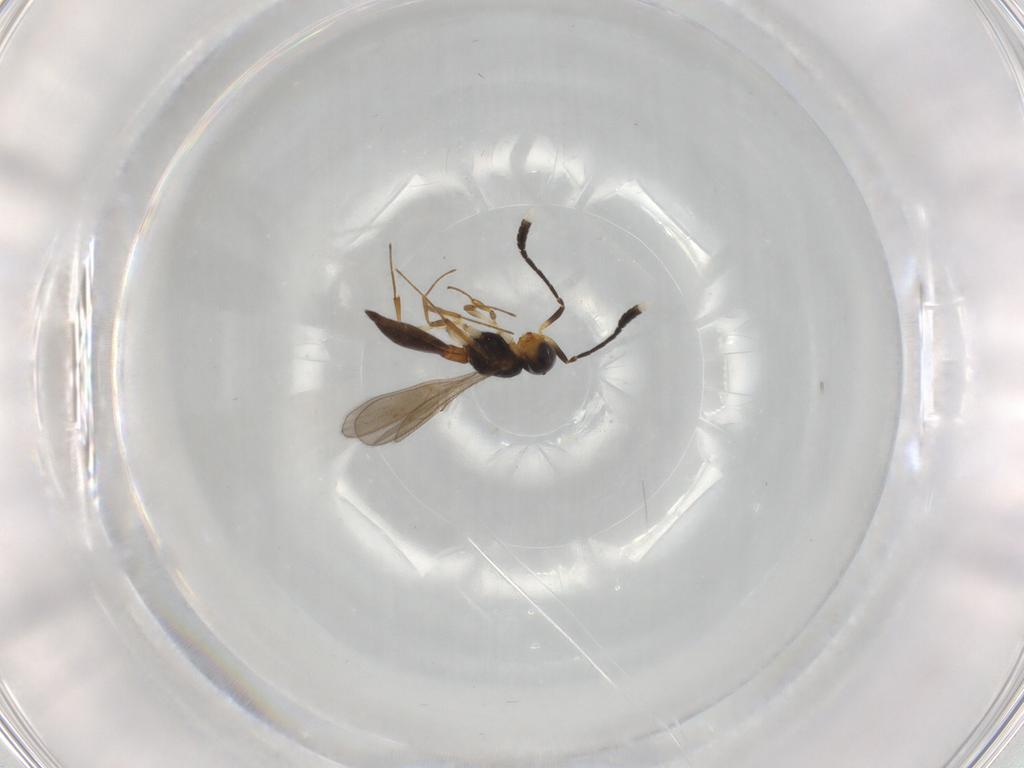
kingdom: Animalia
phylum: Arthropoda
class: Insecta
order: Hymenoptera
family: Scelionidae
